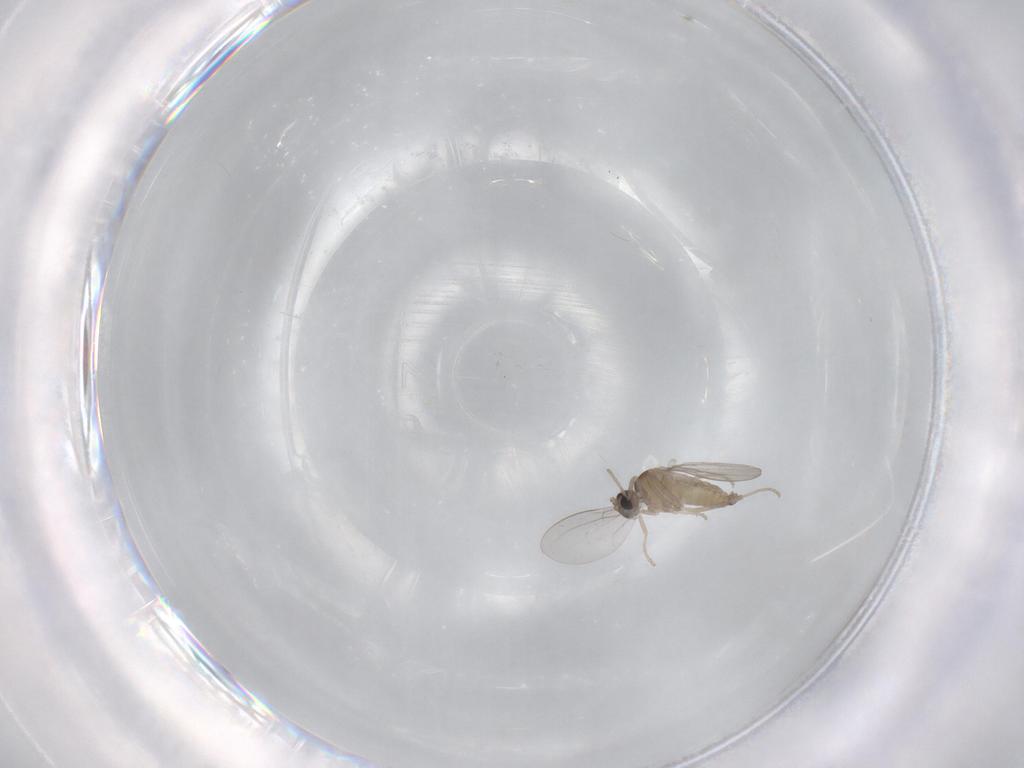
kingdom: Animalia
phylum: Arthropoda
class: Insecta
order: Diptera
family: Cecidomyiidae
